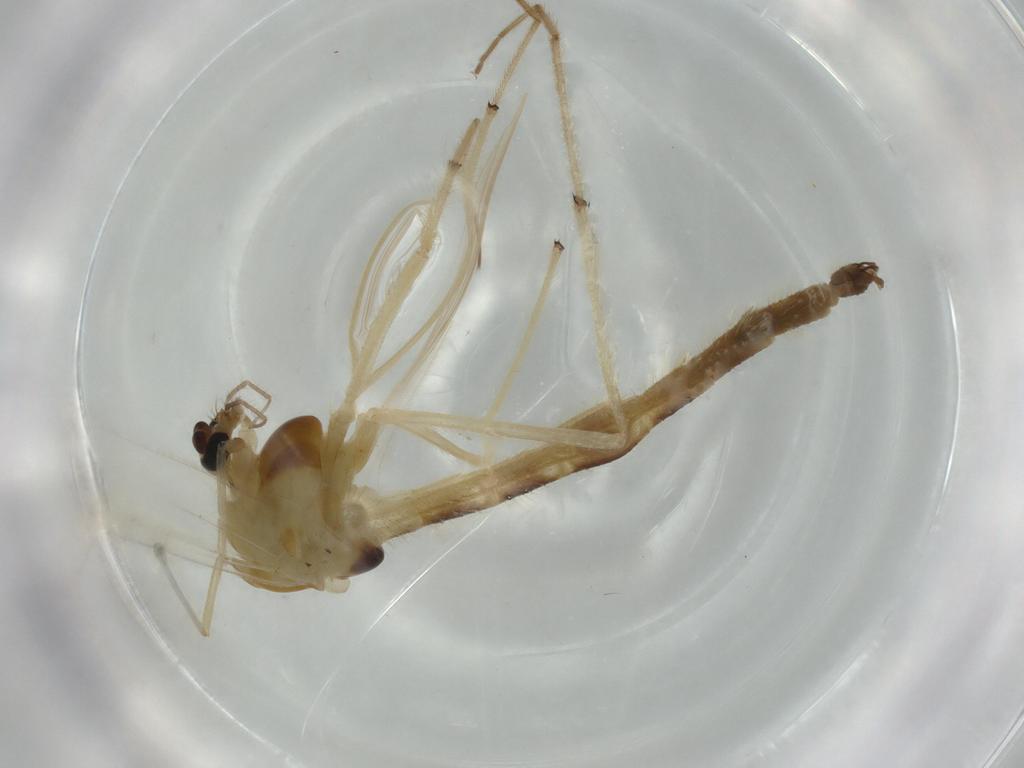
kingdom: Animalia
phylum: Arthropoda
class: Insecta
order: Diptera
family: Chironomidae
